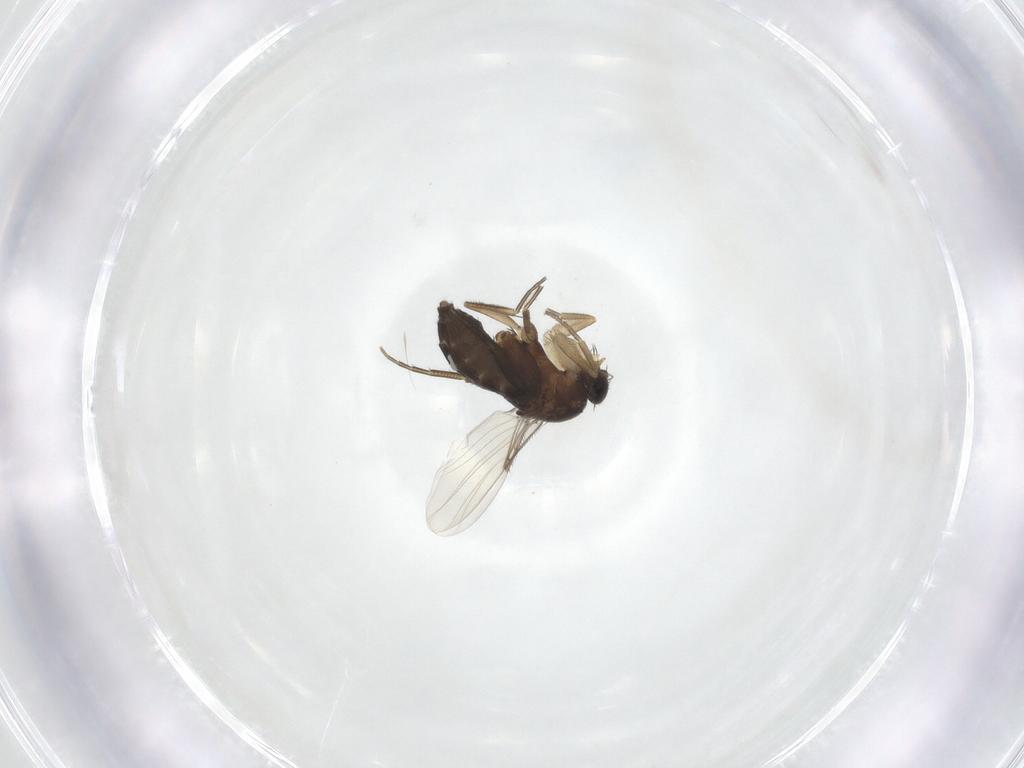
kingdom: Animalia
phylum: Arthropoda
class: Insecta
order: Diptera
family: Phoridae
